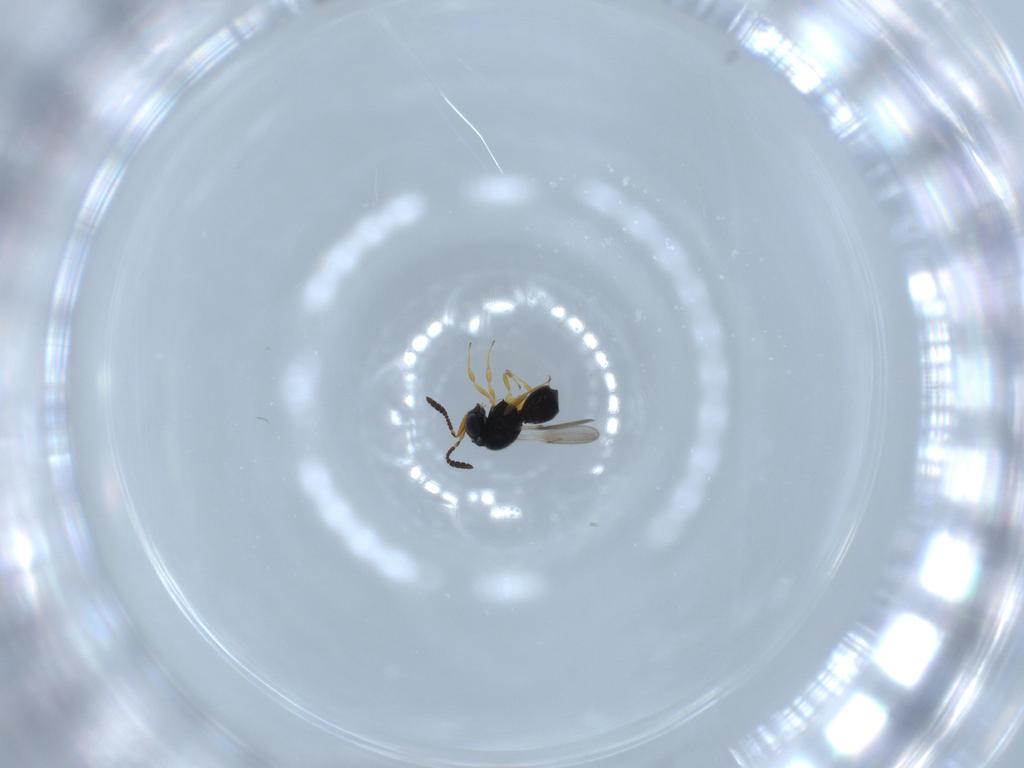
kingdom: Animalia
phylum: Arthropoda
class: Insecta
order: Hymenoptera
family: Scelionidae
